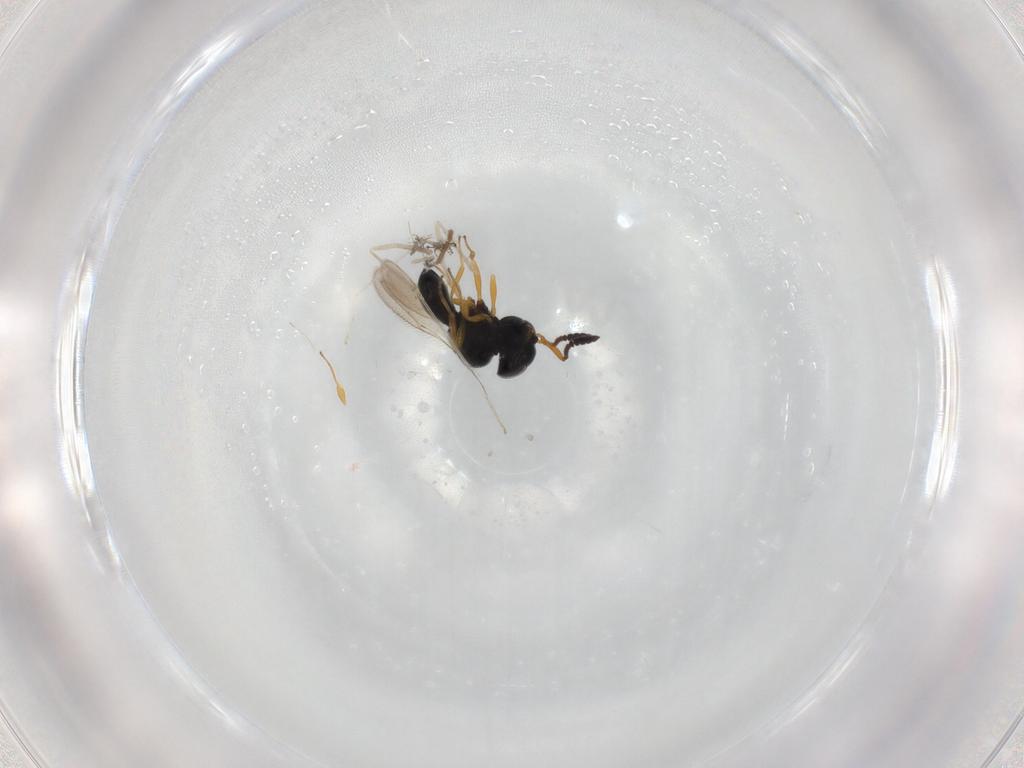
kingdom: Animalia
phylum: Arthropoda
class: Insecta
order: Hymenoptera
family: Scelionidae
